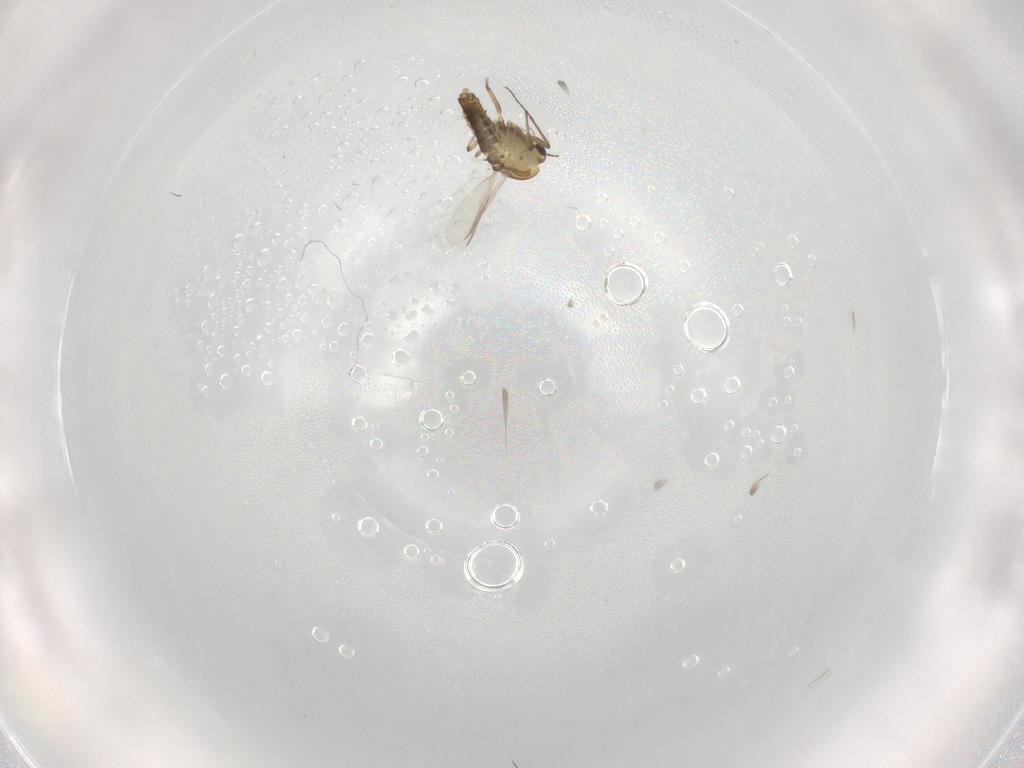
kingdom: Animalia
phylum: Arthropoda
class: Insecta
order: Diptera
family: Chironomidae
